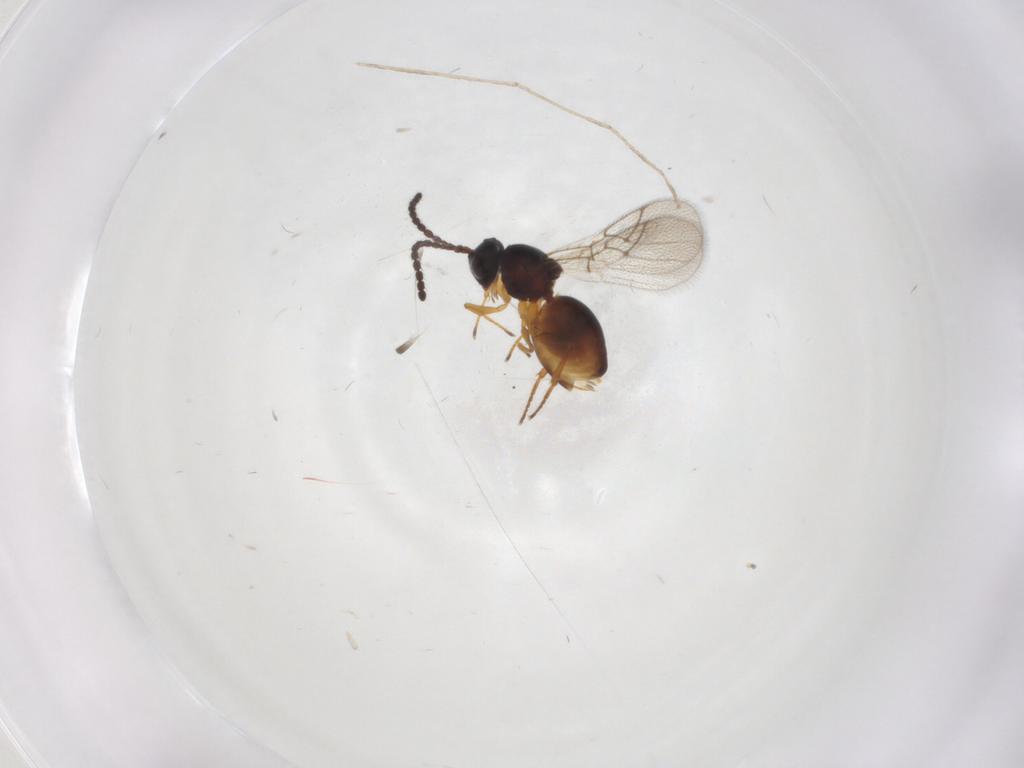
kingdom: Animalia
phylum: Arthropoda
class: Insecta
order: Hymenoptera
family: Figitidae
